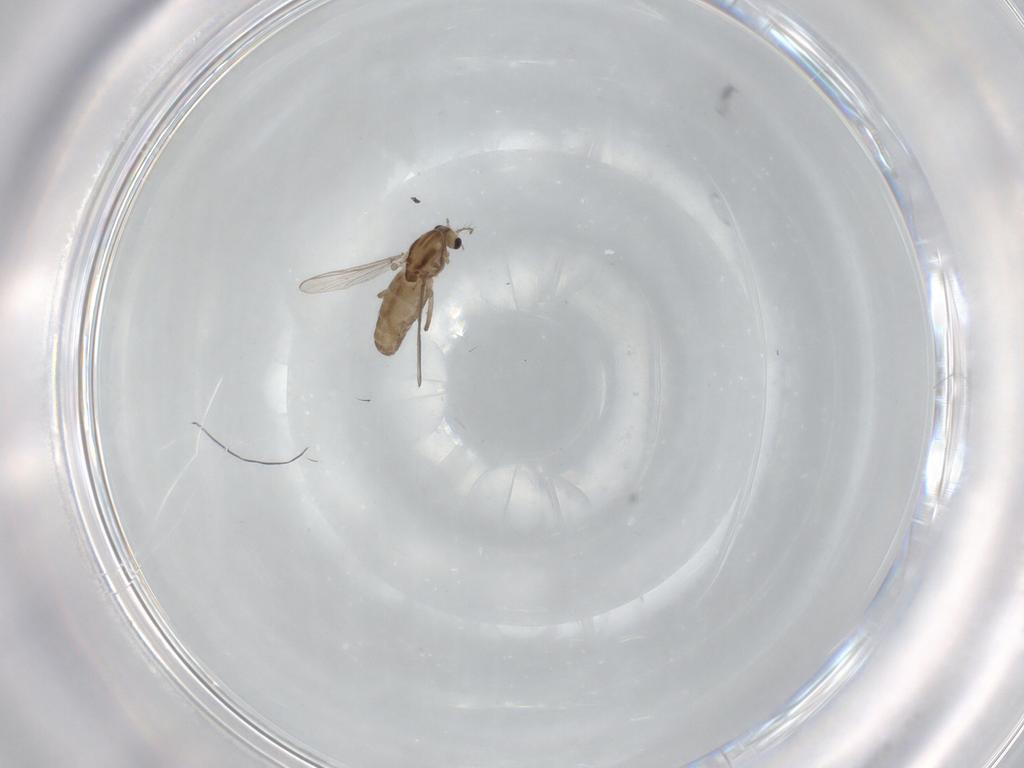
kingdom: Animalia
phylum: Arthropoda
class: Insecta
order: Diptera
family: Chironomidae
